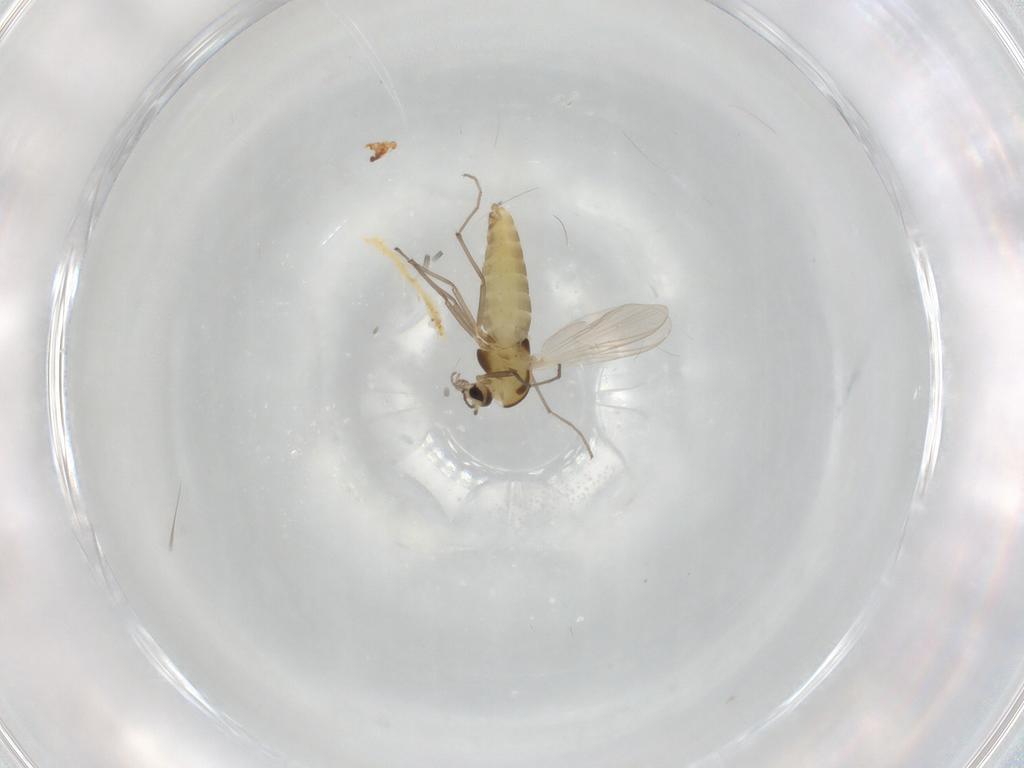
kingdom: Animalia
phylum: Arthropoda
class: Insecta
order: Diptera
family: Chironomidae
